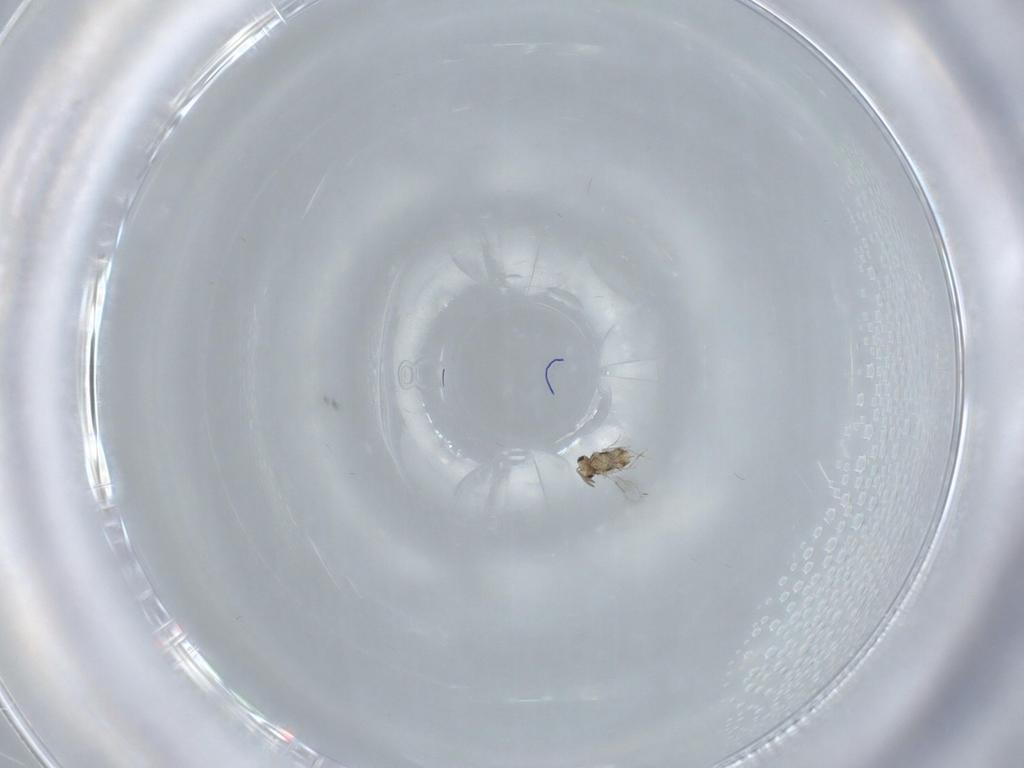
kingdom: Animalia
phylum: Arthropoda
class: Insecta
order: Hymenoptera
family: Aphelinidae
